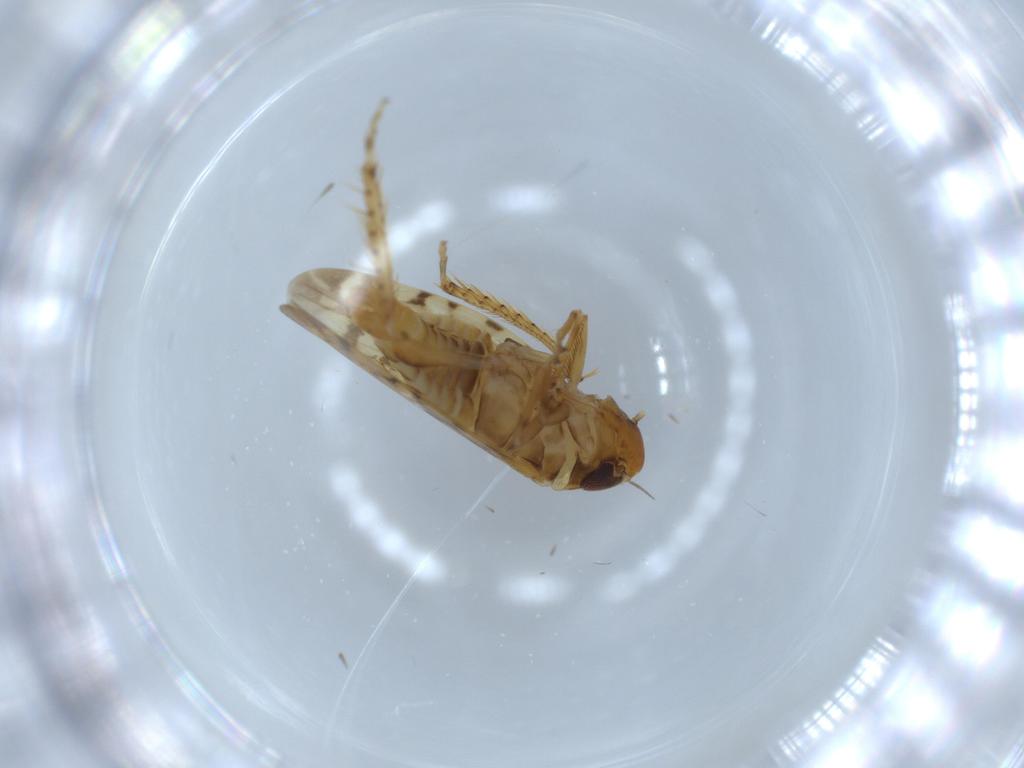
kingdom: Animalia
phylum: Arthropoda
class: Insecta
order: Hemiptera
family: Cicadellidae
